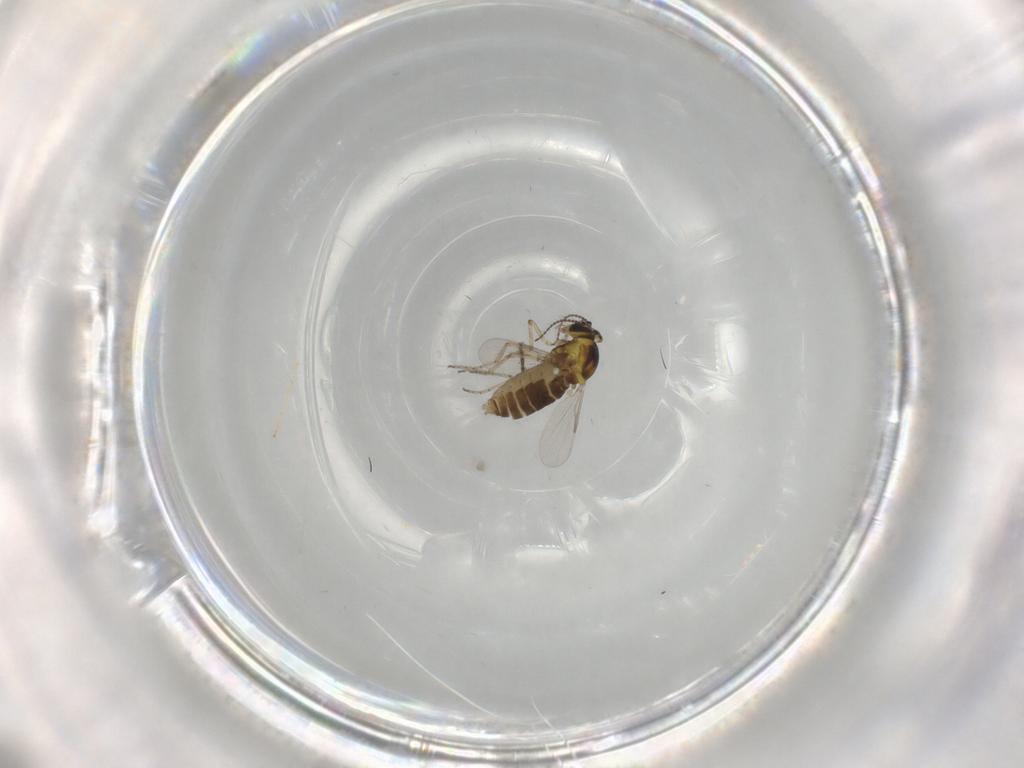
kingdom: Animalia
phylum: Arthropoda
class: Insecta
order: Diptera
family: Ceratopogonidae
